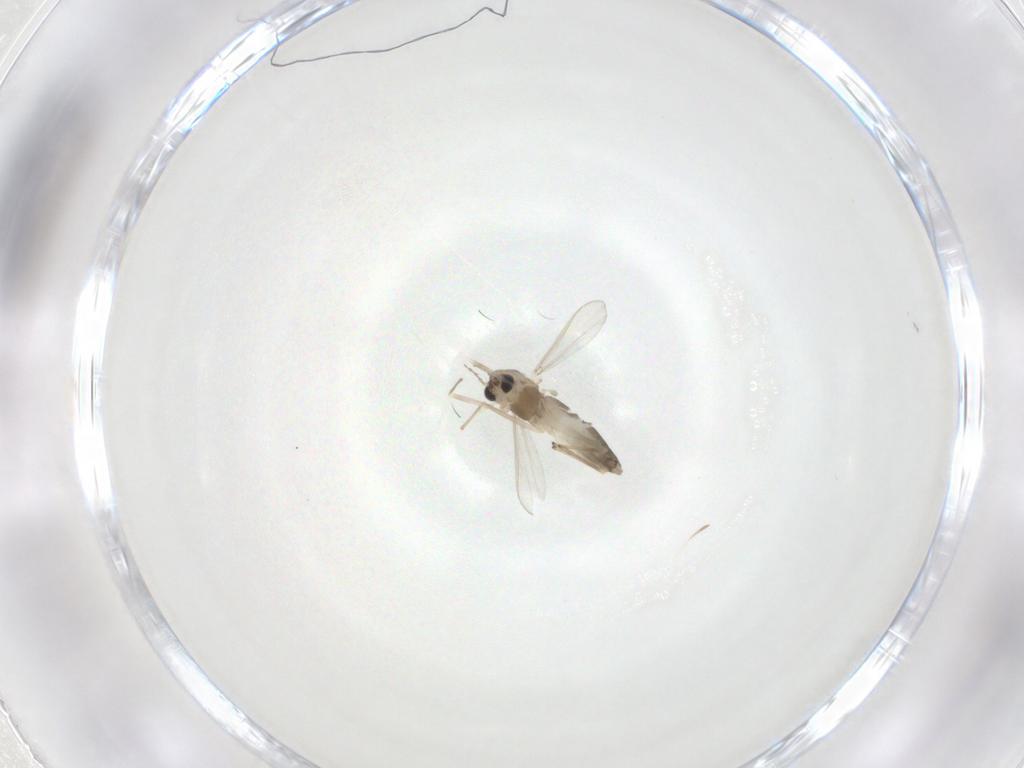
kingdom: Animalia
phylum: Arthropoda
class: Insecta
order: Diptera
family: Chironomidae
